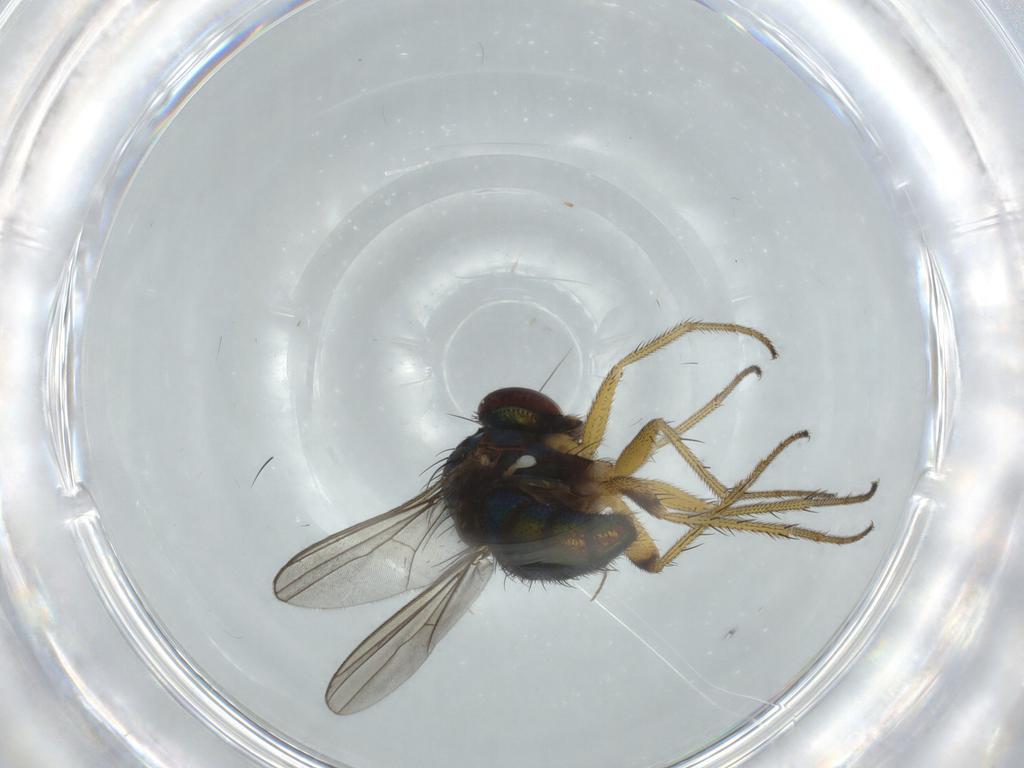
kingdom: Animalia
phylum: Arthropoda
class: Insecta
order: Diptera
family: Dolichopodidae
